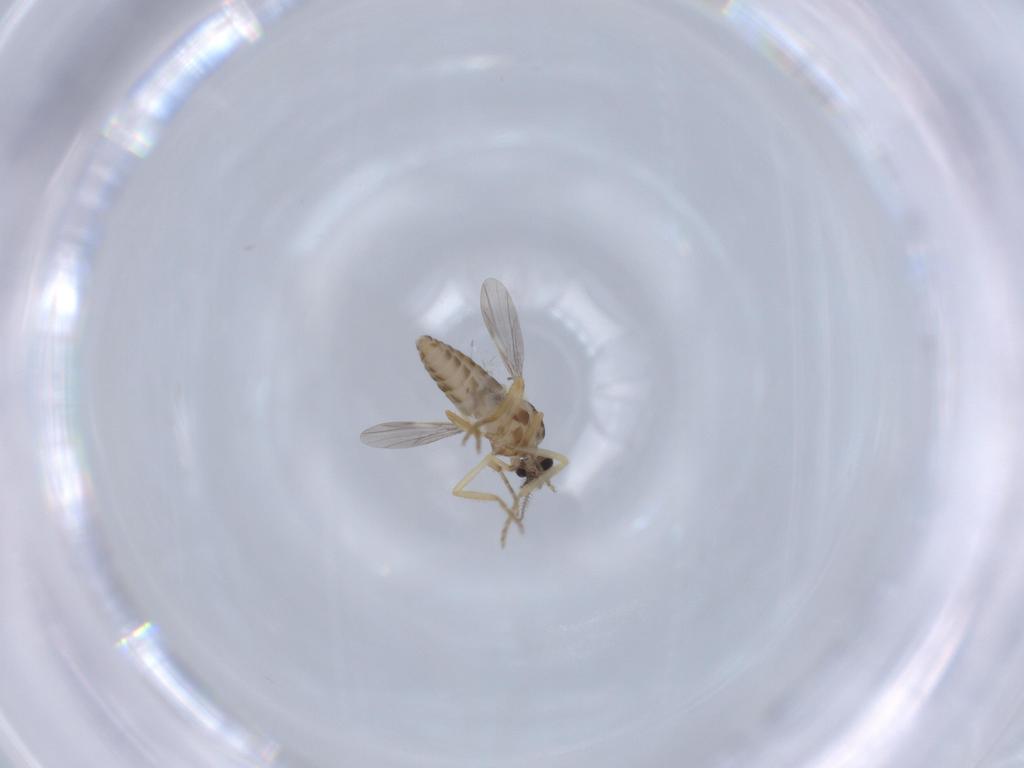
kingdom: Animalia
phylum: Arthropoda
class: Insecta
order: Diptera
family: Ceratopogonidae
